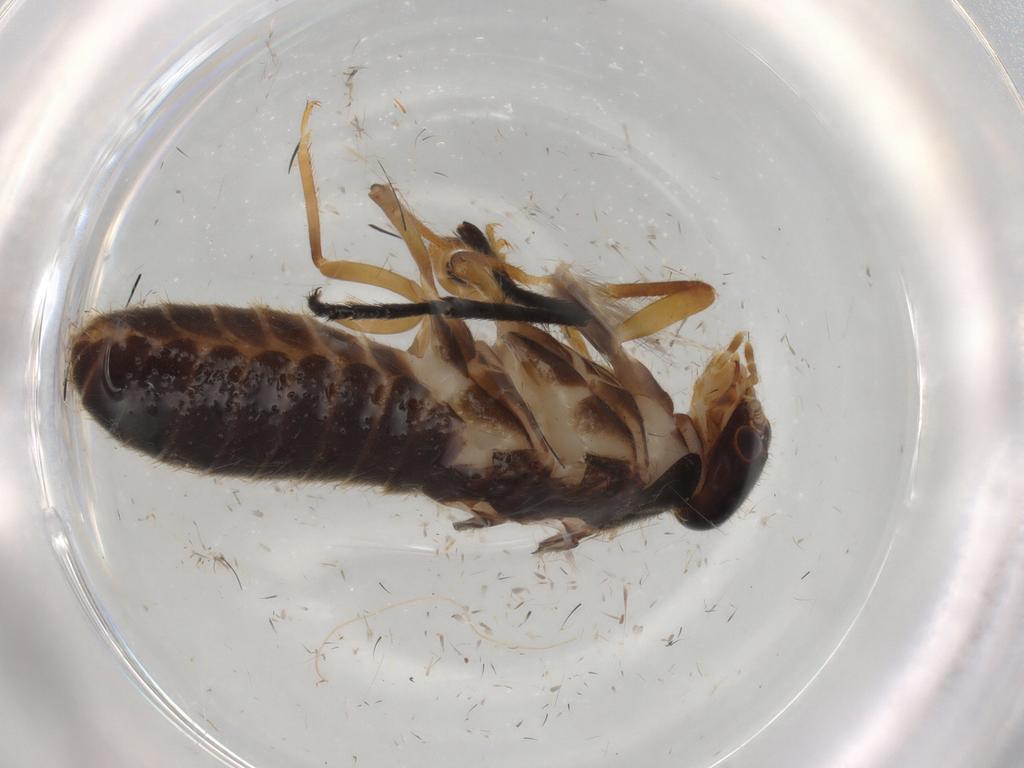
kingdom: Animalia
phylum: Arthropoda
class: Insecta
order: Blattodea
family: Termitidae
